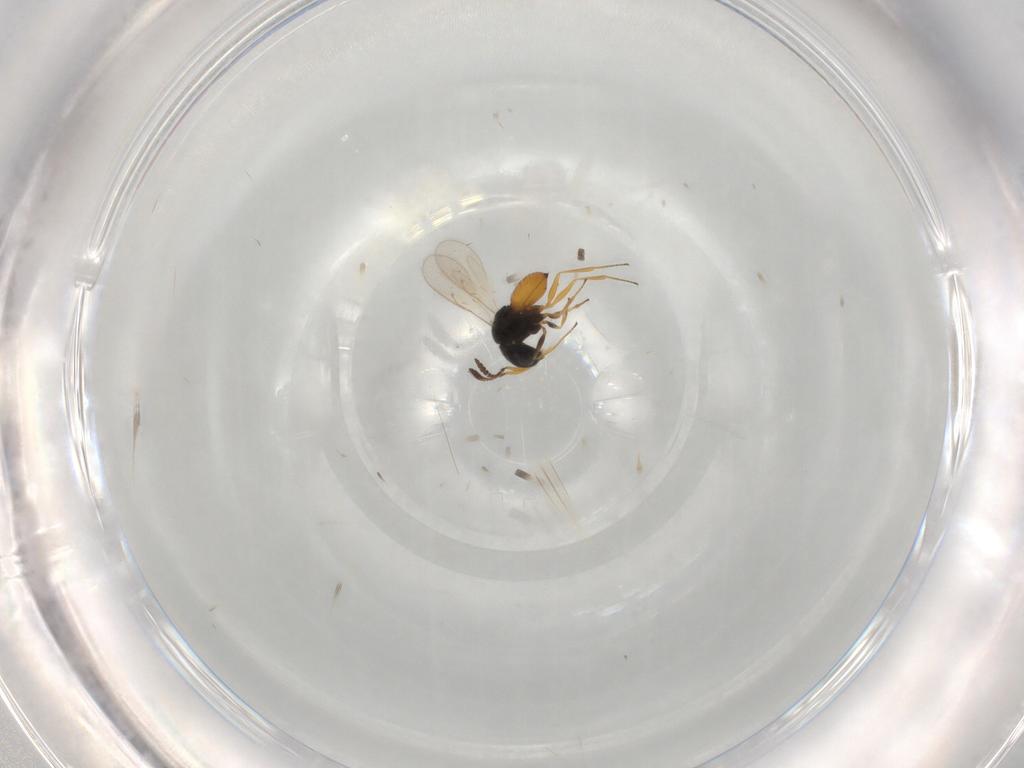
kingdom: Animalia
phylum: Arthropoda
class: Insecta
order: Hymenoptera
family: Scelionidae
